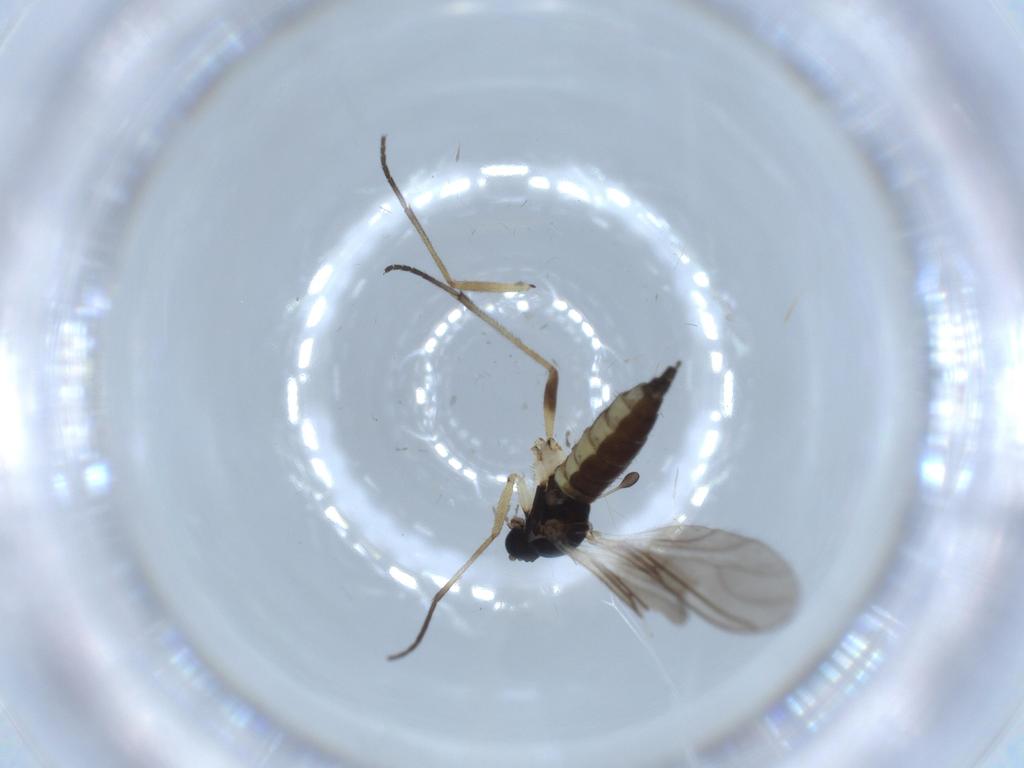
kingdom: Animalia
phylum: Arthropoda
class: Insecta
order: Diptera
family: Sciaridae
